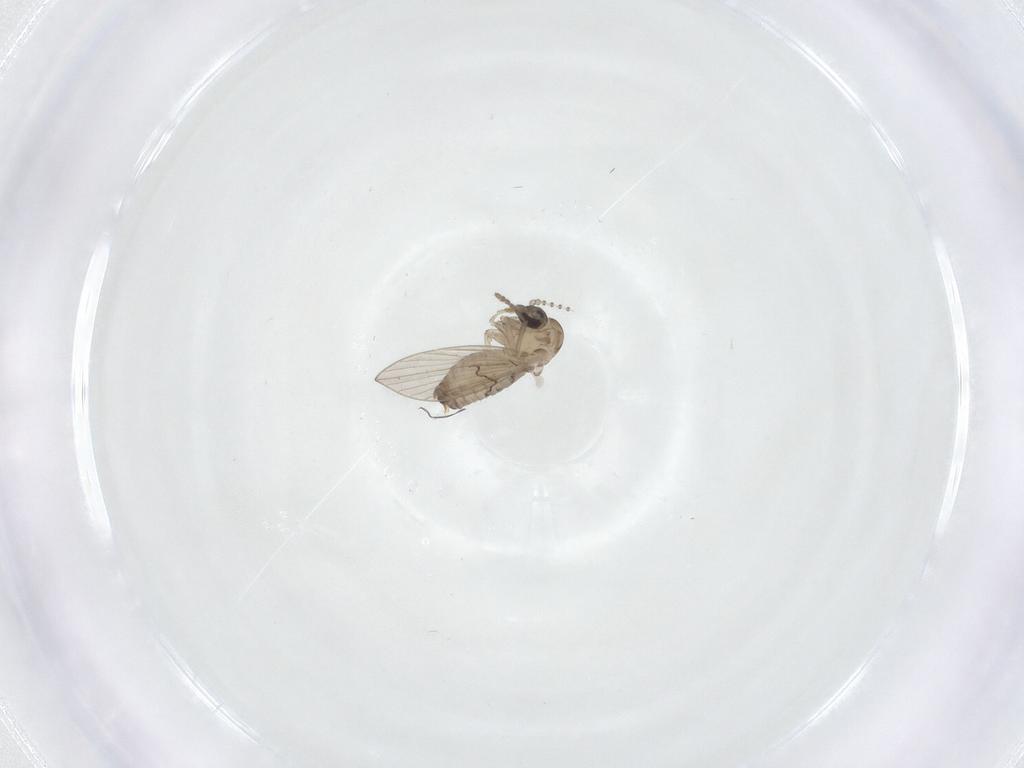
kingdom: Animalia
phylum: Arthropoda
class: Insecta
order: Diptera
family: Psychodidae
